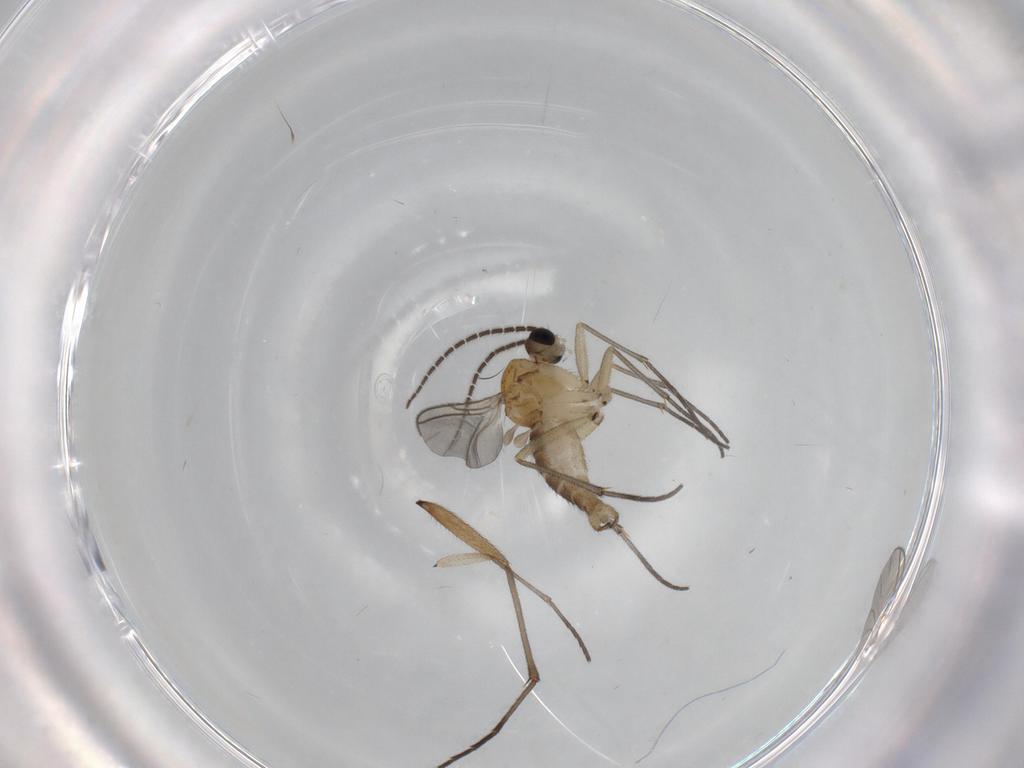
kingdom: Animalia
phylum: Arthropoda
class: Insecta
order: Diptera
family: Sciaridae
